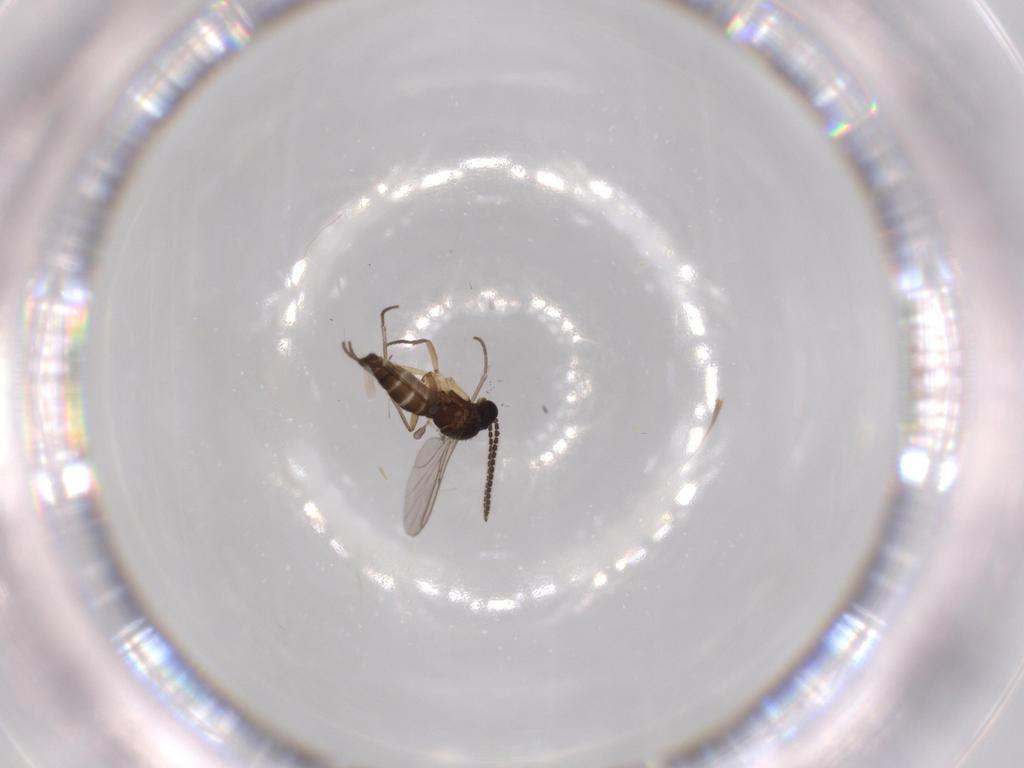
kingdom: Animalia
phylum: Arthropoda
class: Insecta
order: Diptera
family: Sciaridae
